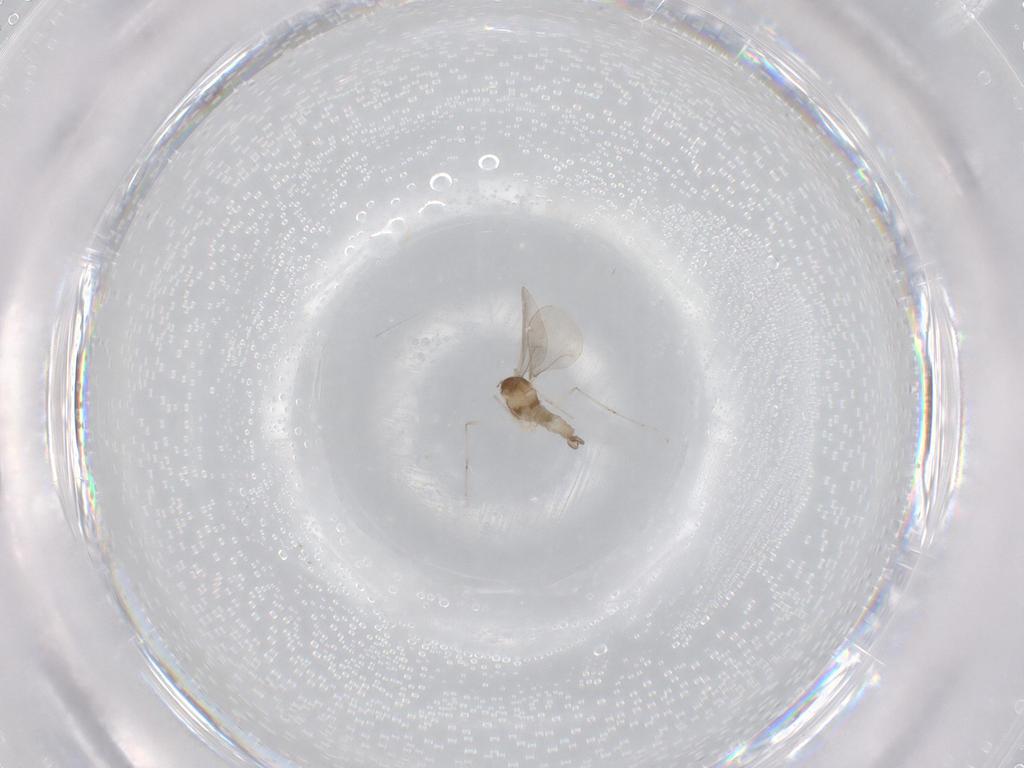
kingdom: Animalia
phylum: Arthropoda
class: Insecta
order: Diptera
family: Cecidomyiidae
